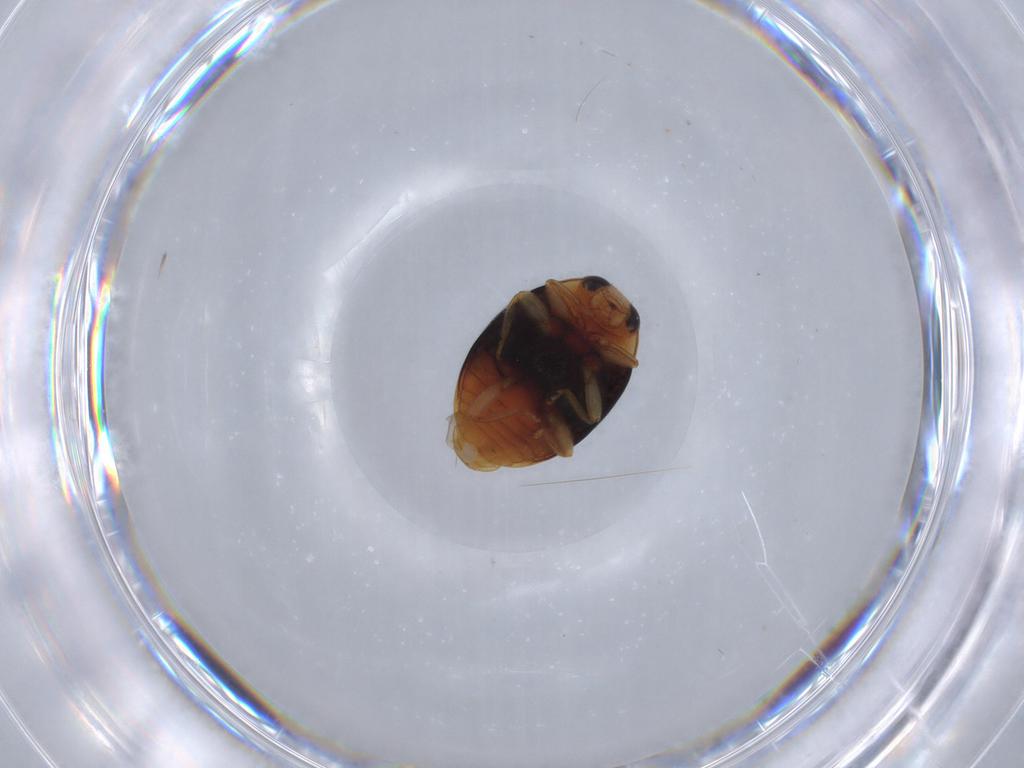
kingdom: Animalia
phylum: Arthropoda
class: Insecta
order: Coleoptera
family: Coccinellidae
